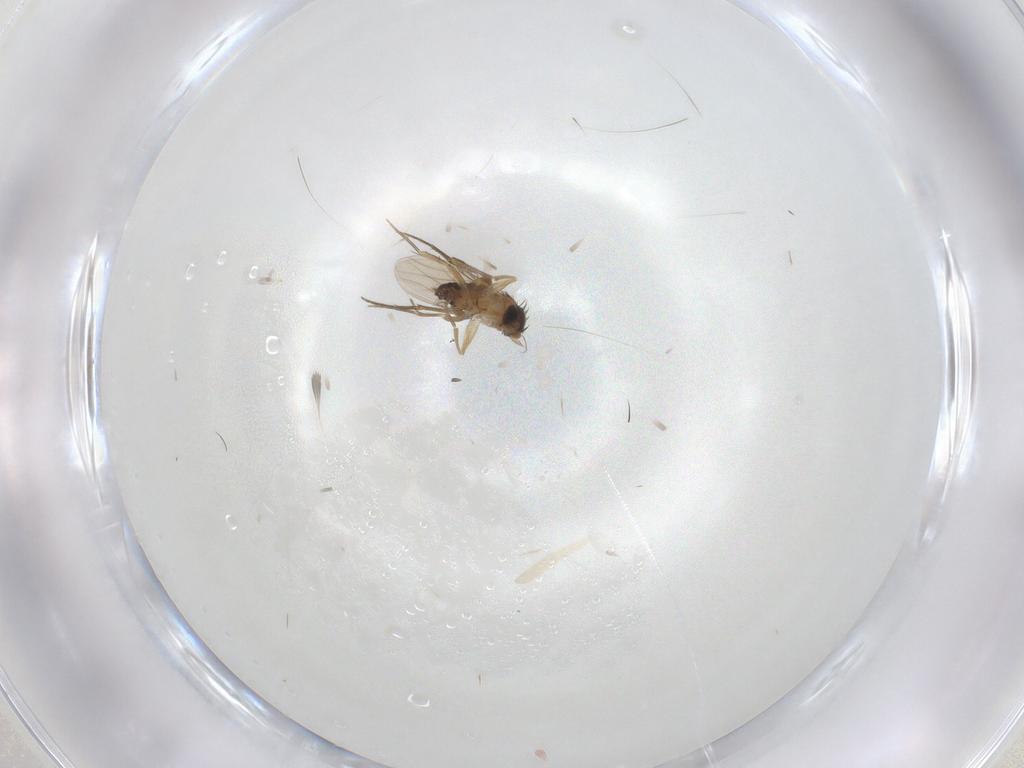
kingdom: Animalia
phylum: Arthropoda
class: Insecta
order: Diptera
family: Phoridae
